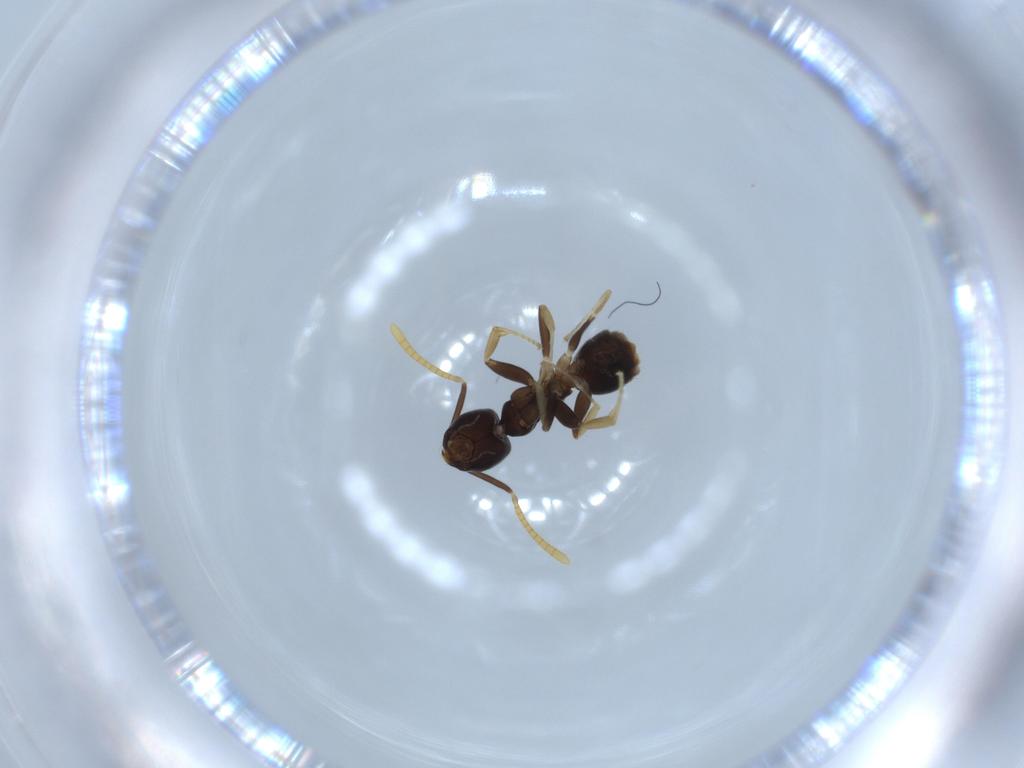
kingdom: Animalia
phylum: Arthropoda
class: Insecta
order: Hymenoptera
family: Formicidae
